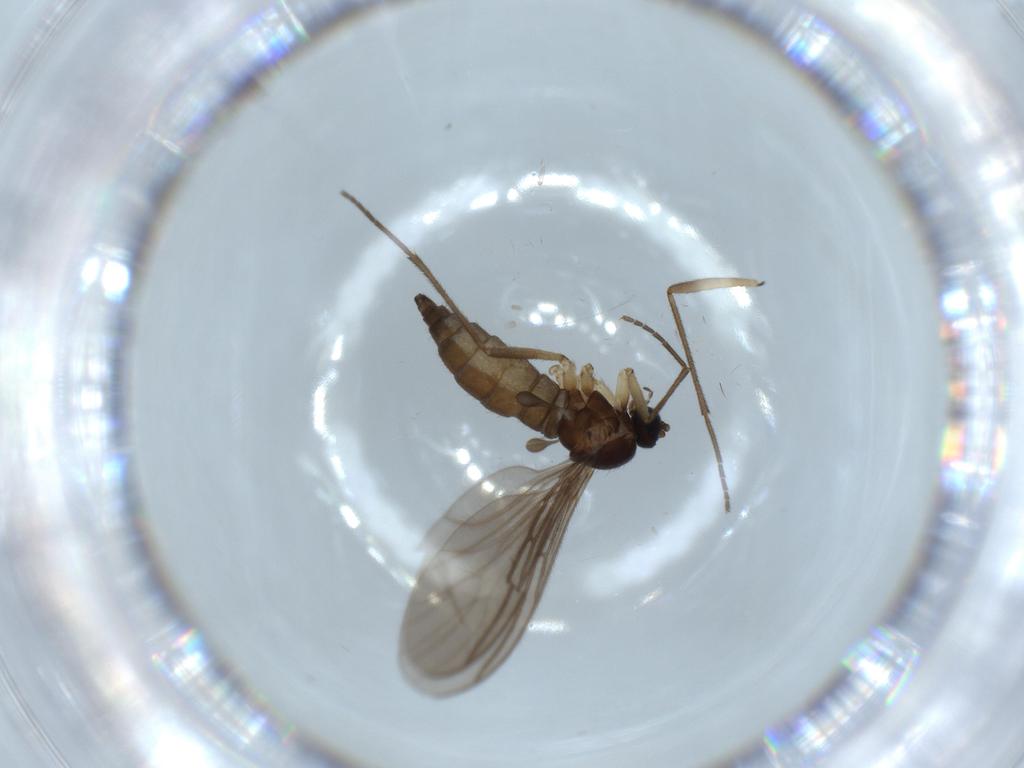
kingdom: Animalia
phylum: Arthropoda
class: Insecta
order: Diptera
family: Sciaridae
